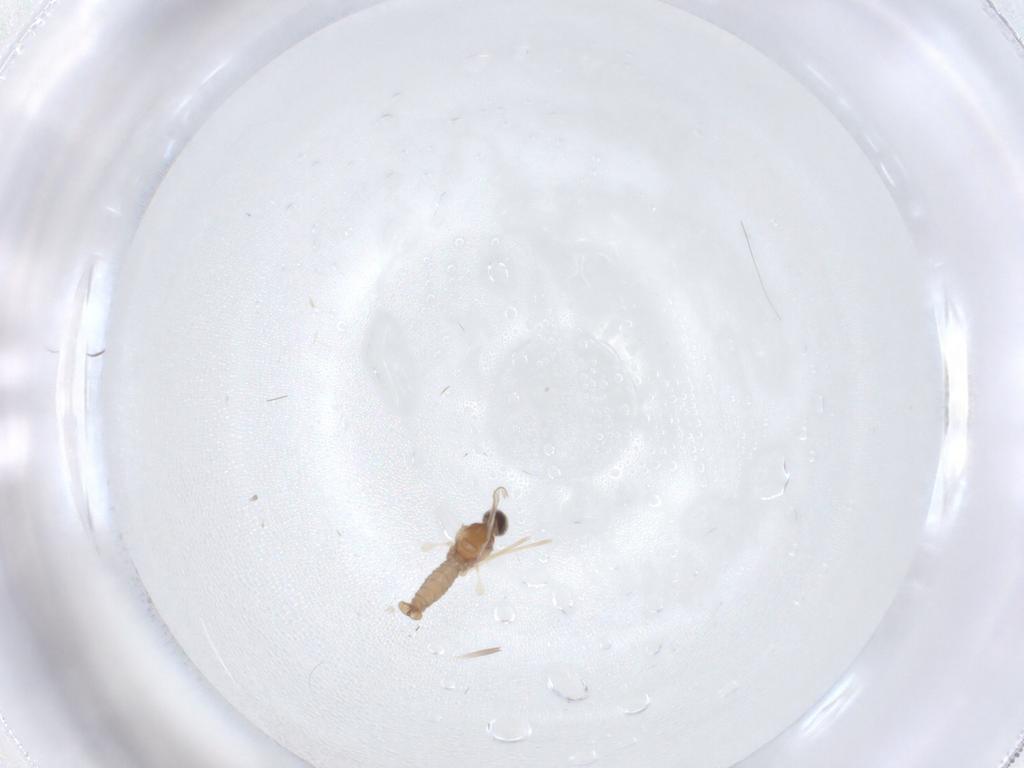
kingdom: Animalia
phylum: Arthropoda
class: Insecta
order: Diptera
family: Cecidomyiidae
